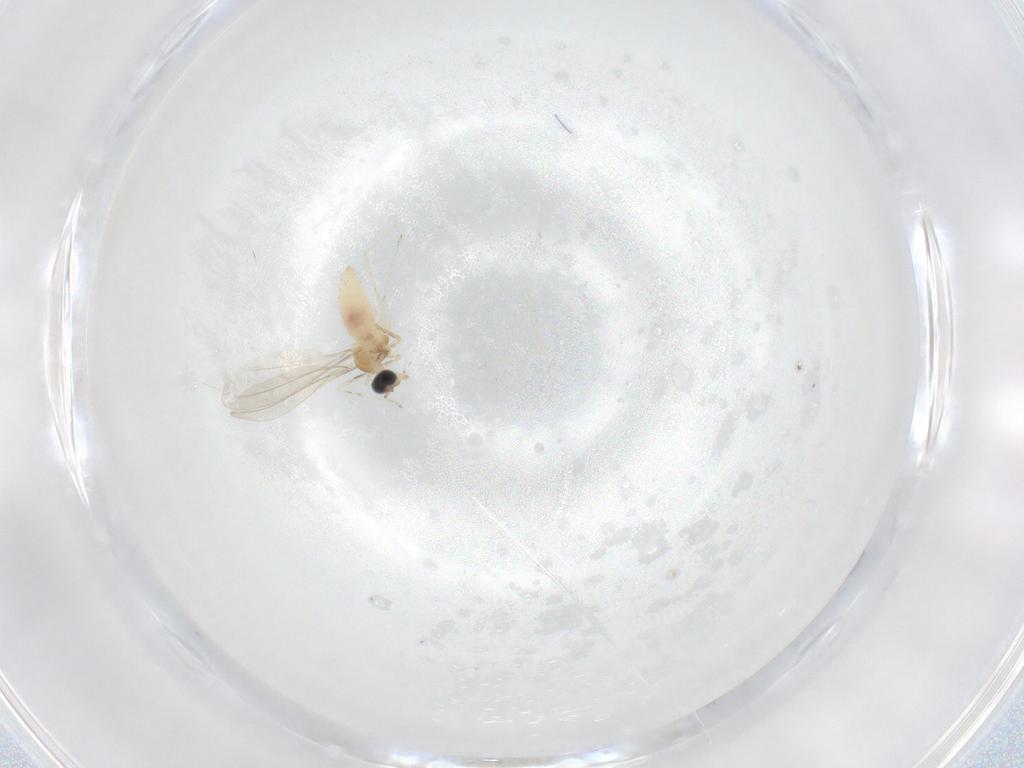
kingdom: Animalia
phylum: Arthropoda
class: Insecta
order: Diptera
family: Cecidomyiidae
